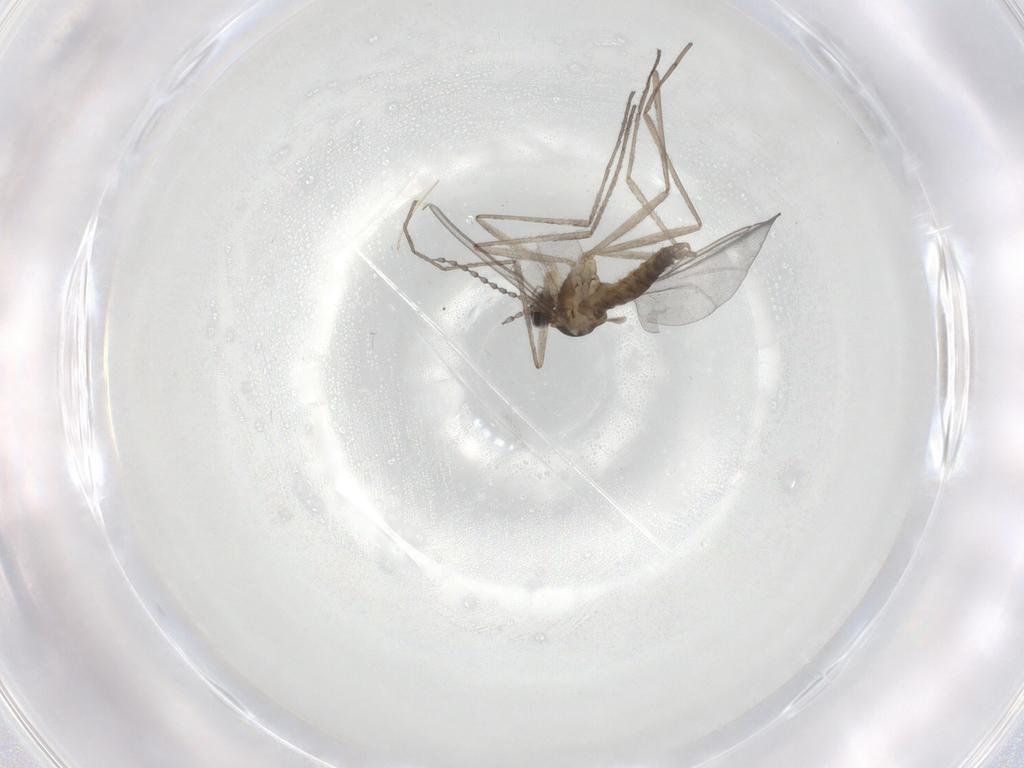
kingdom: Animalia
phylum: Arthropoda
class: Insecta
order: Diptera
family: Cecidomyiidae
